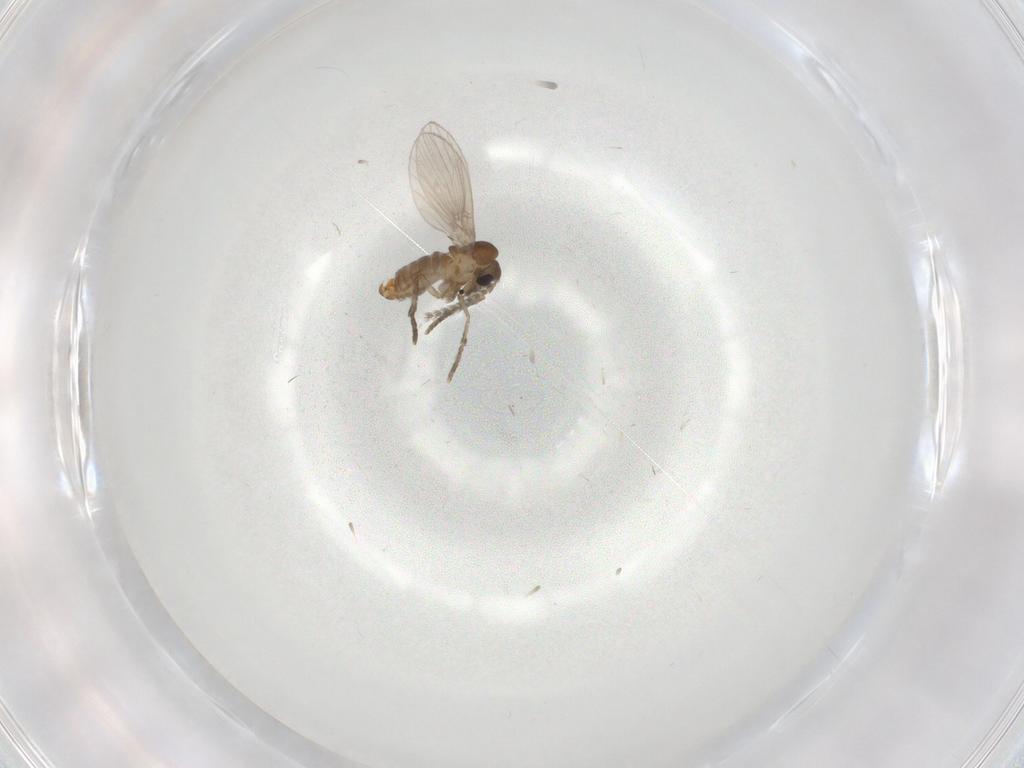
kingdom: Animalia
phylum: Arthropoda
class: Insecta
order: Diptera
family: Sciaridae
